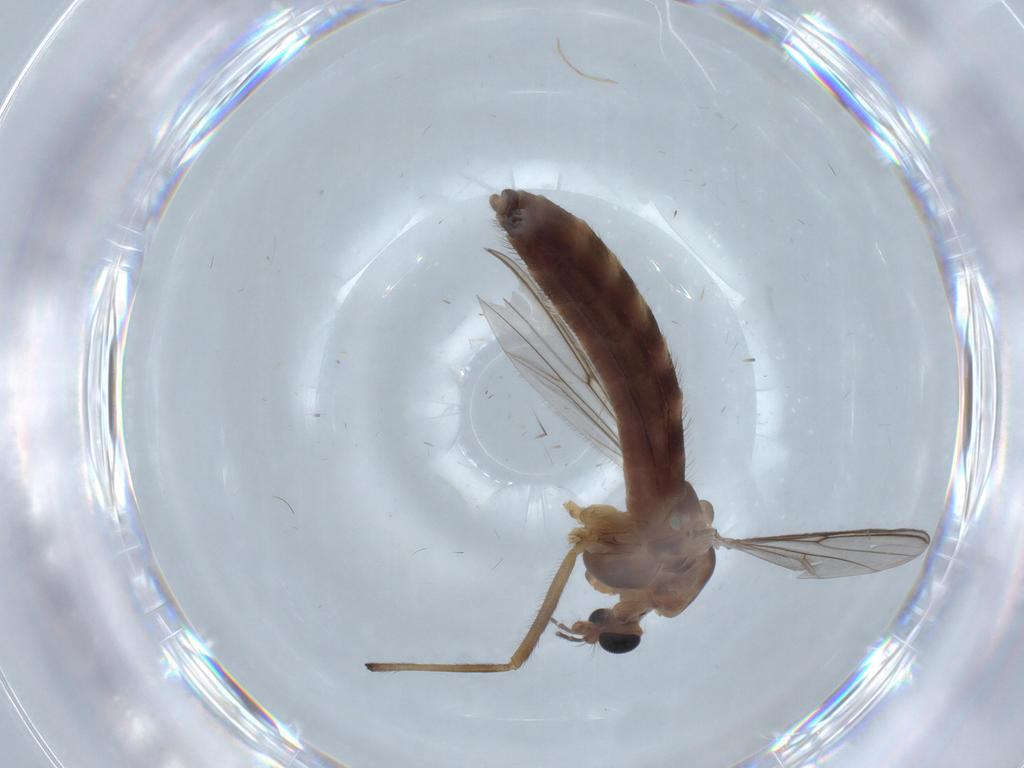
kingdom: Animalia
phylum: Arthropoda
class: Insecta
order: Diptera
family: Chironomidae
